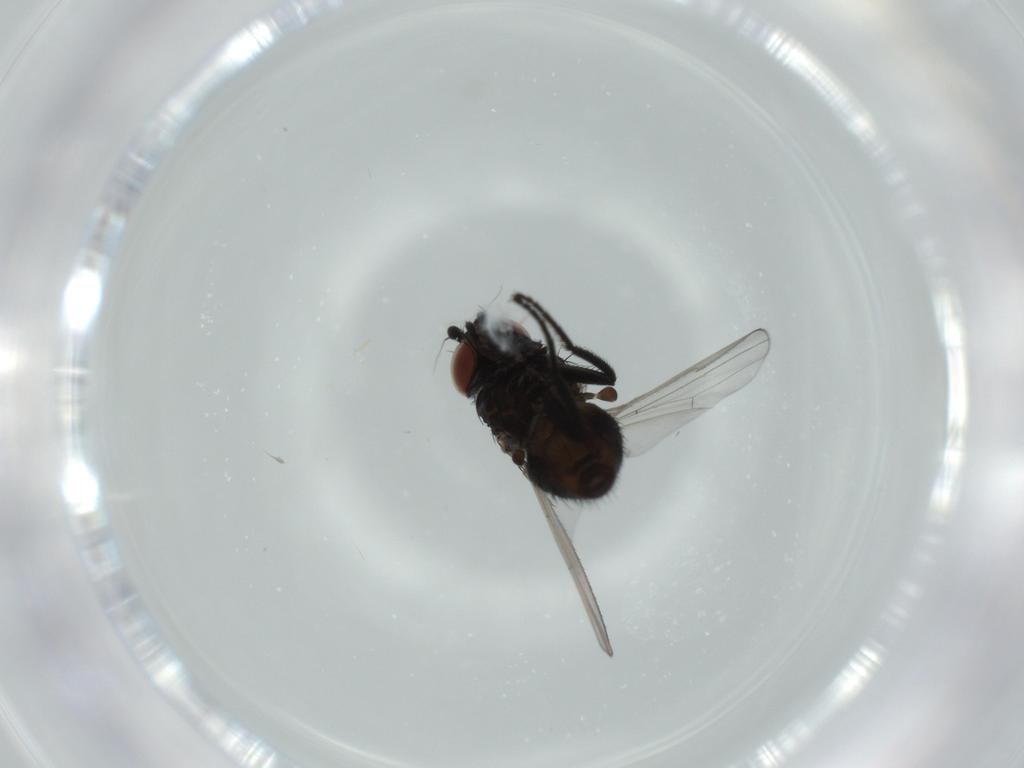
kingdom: Animalia
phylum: Arthropoda
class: Insecta
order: Diptera
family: Milichiidae
